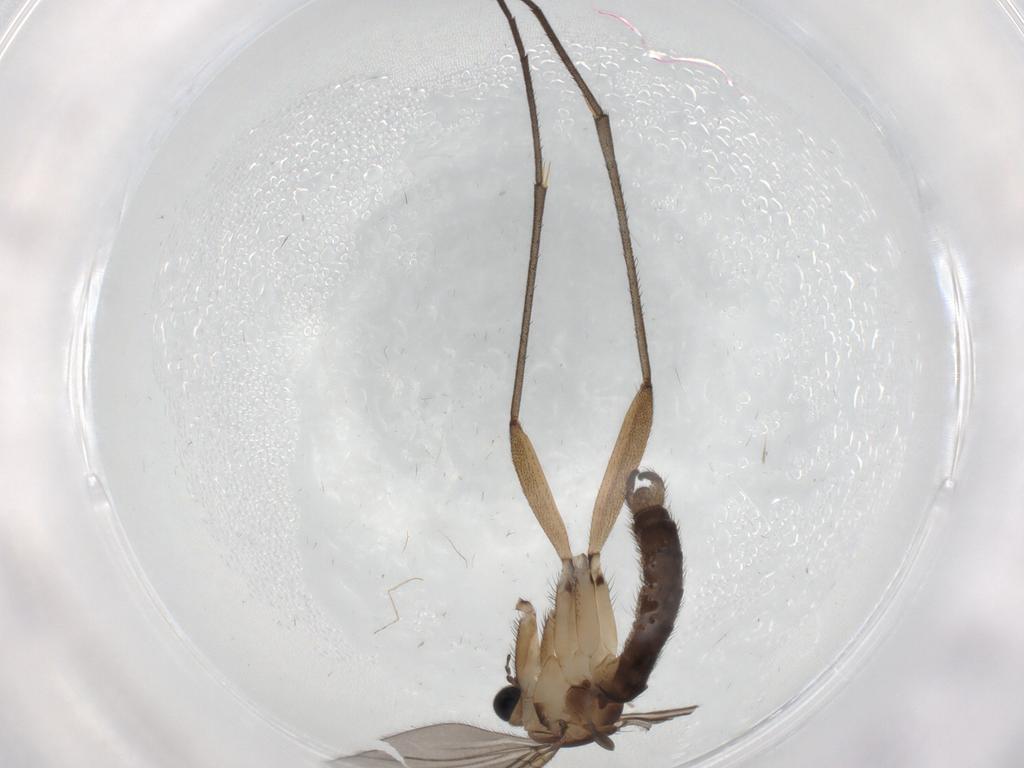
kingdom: Animalia
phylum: Arthropoda
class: Insecta
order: Diptera
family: Sciaridae
